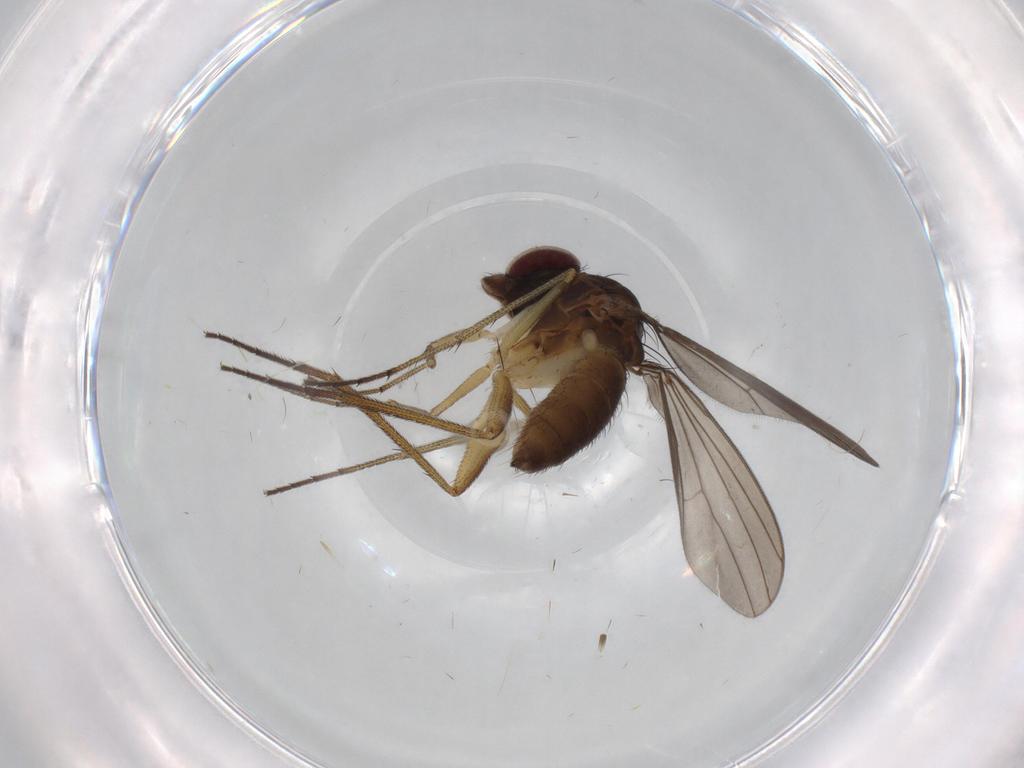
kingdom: Animalia
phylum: Arthropoda
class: Insecta
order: Diptera
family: Dolichopodidae
